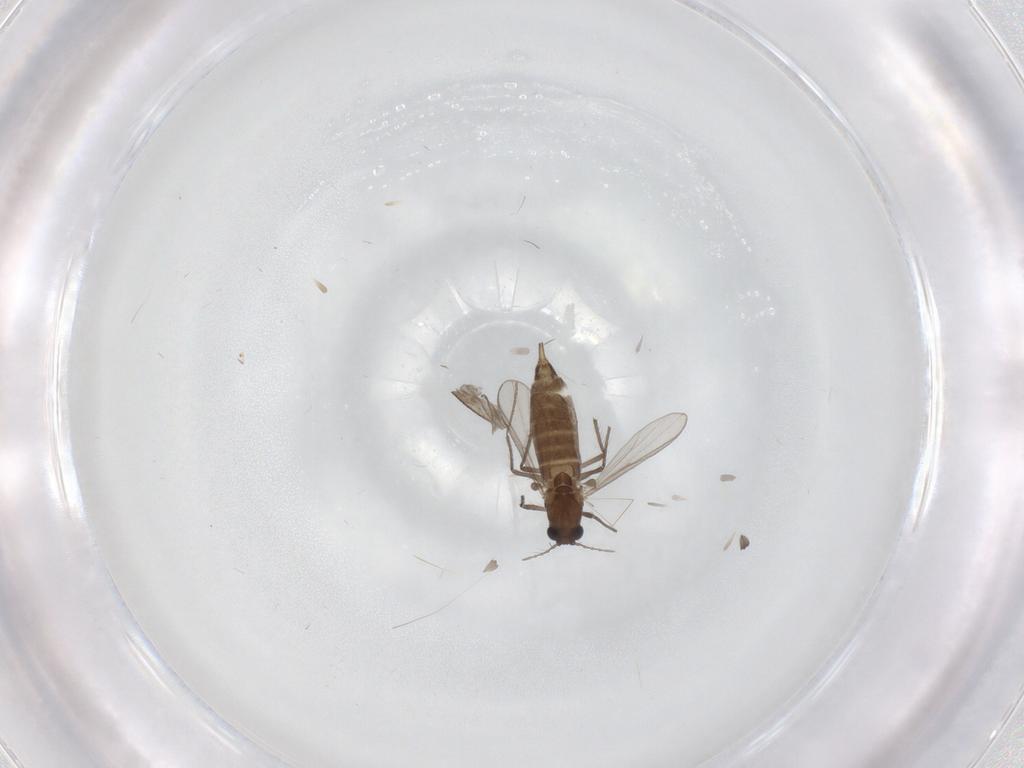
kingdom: Animalia
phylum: Arthropoda
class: Insecta
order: Diptera
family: Chironomidae
